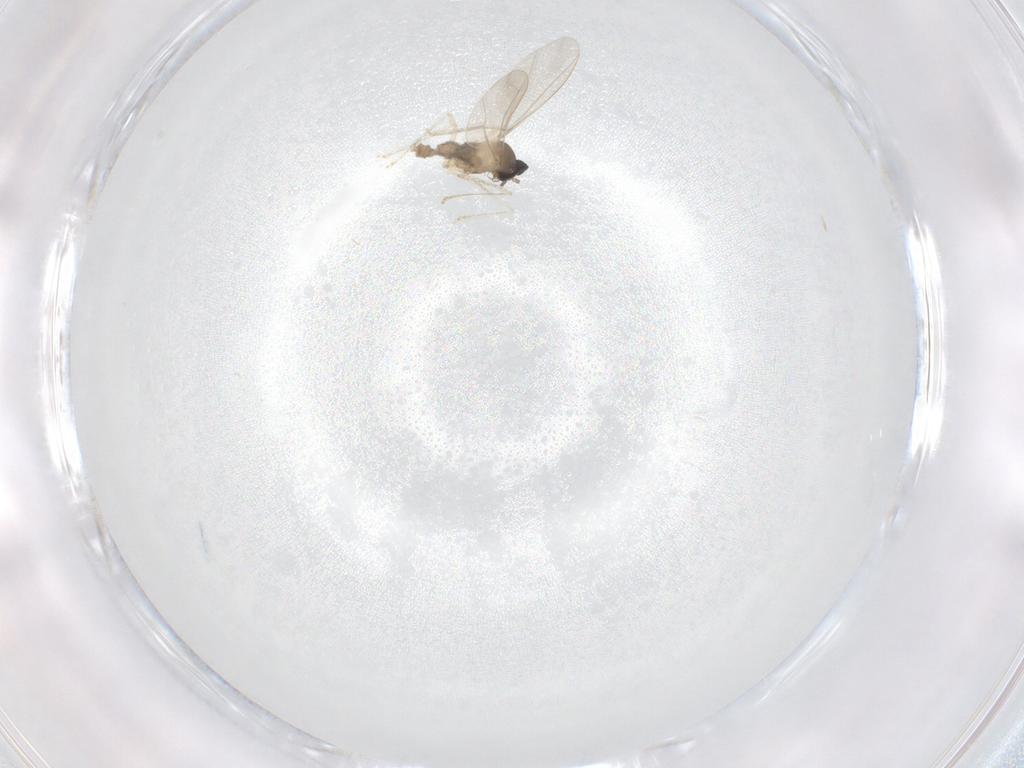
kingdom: Animalia
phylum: Arthropoda
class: Insecta
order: Diptera
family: Cecidomyiidae
